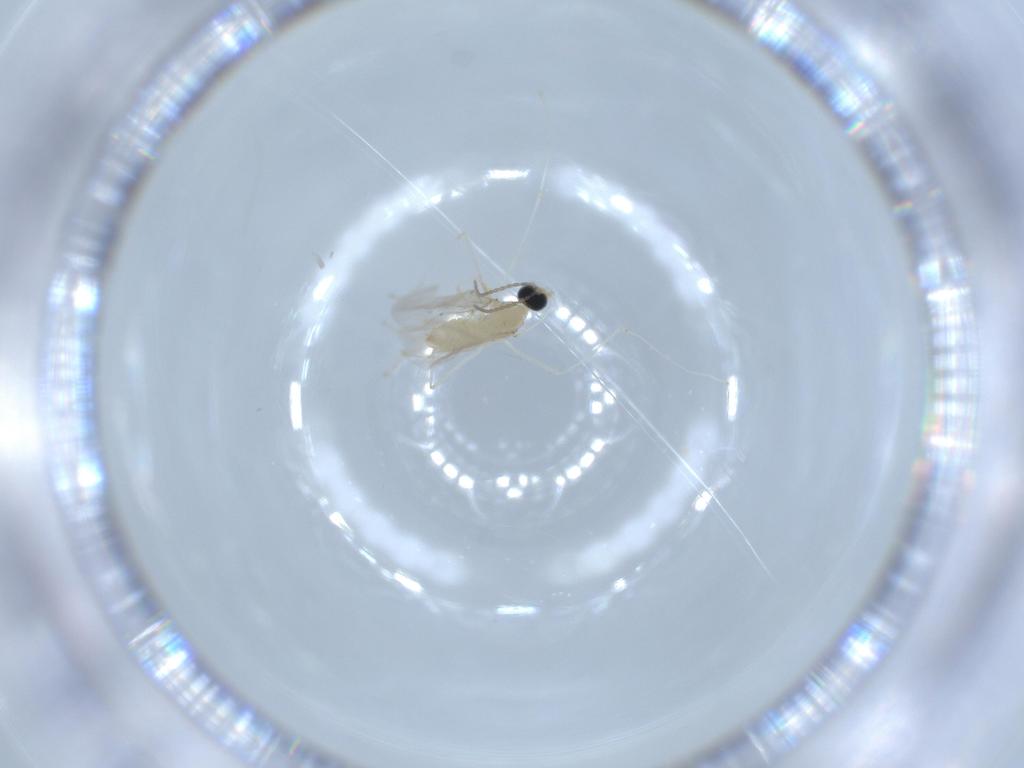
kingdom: Animalia
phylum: Arthropoda
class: Insecta
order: Diptera
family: Cecidomyiidae
